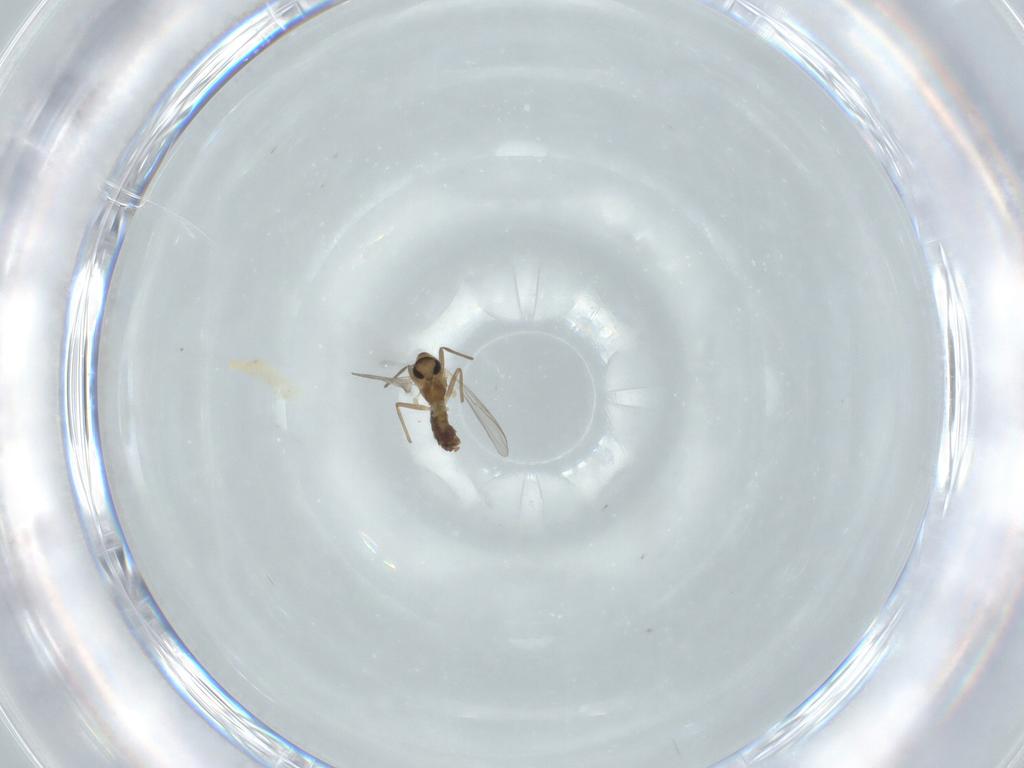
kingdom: Animalia
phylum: Arthropoda
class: Insecta
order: Diptera
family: Chironomidae
